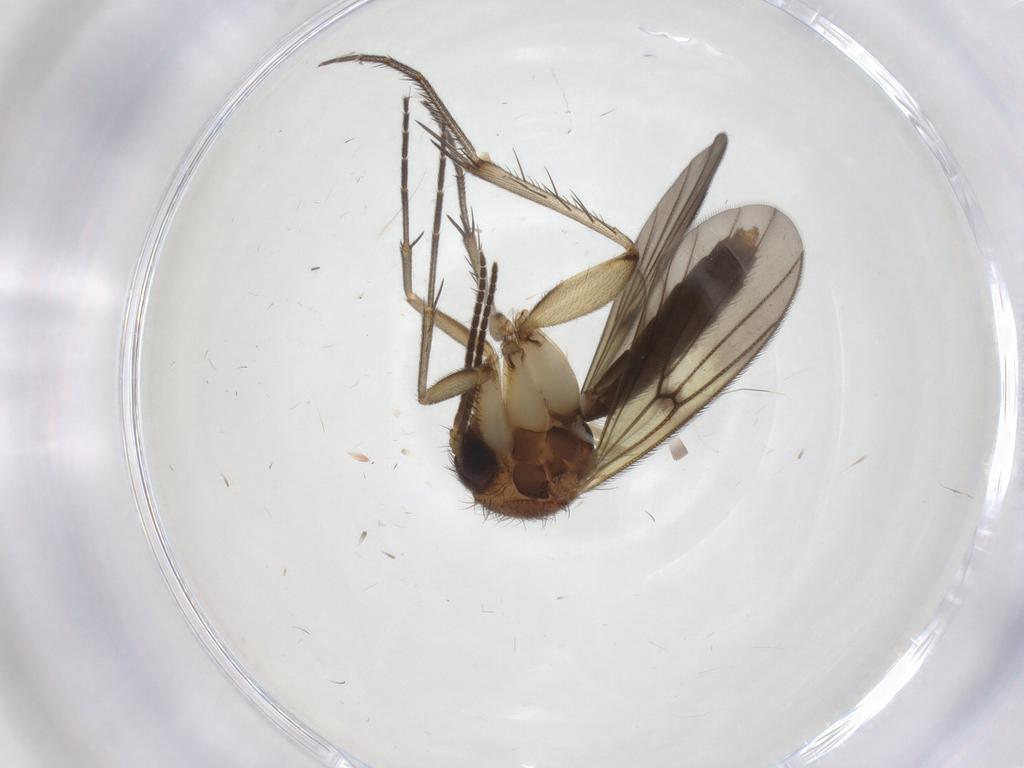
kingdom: Animalia
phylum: Arthropoda
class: Insecta
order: Diptera
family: Mycetophilidae
